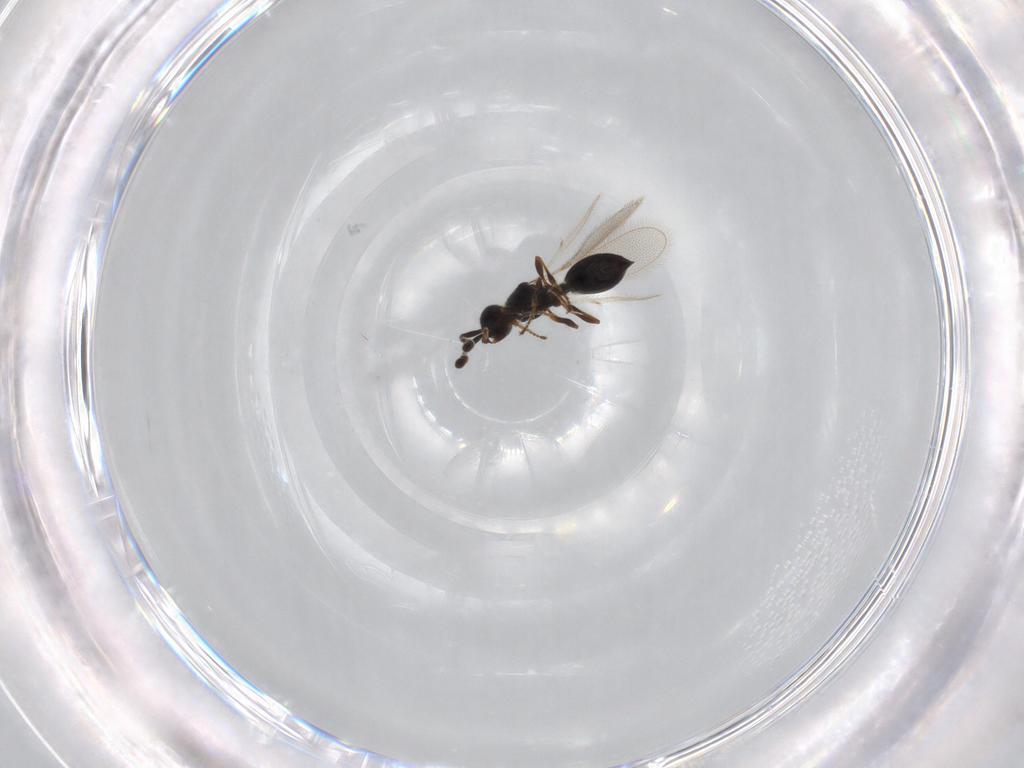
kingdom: Animalia
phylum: Arthropoda
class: Insecta
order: Hymenoptera
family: Diapriidae
